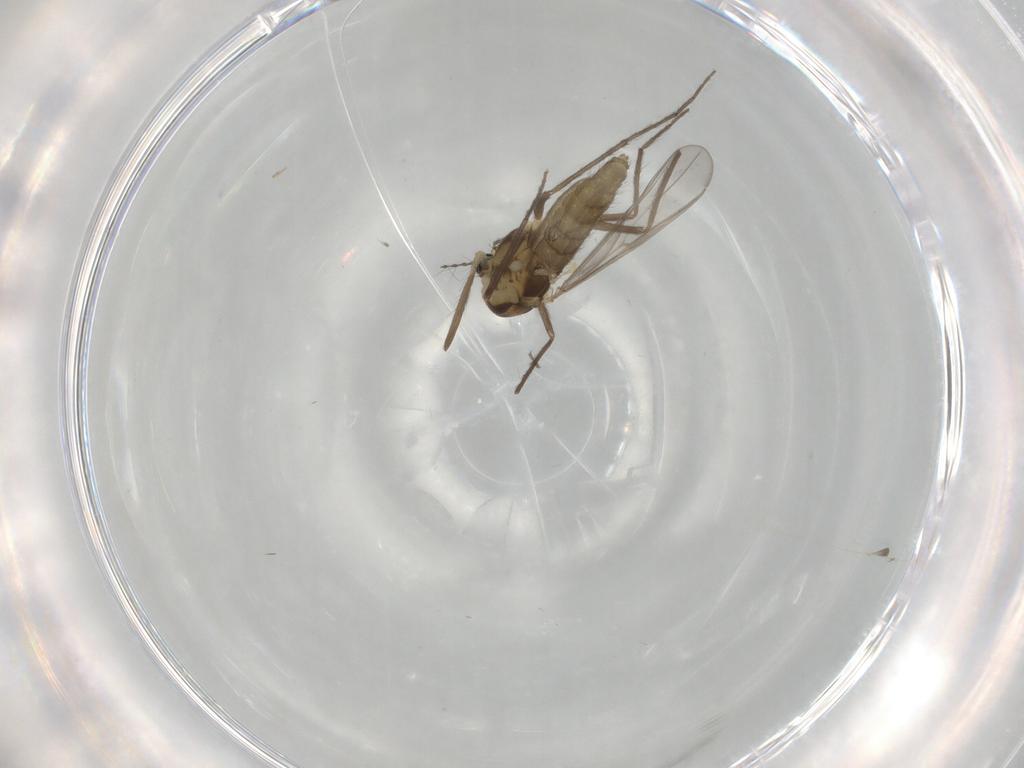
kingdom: Animalia
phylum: Arthropoda
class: Insecta
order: Diptera
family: Chironomidae
